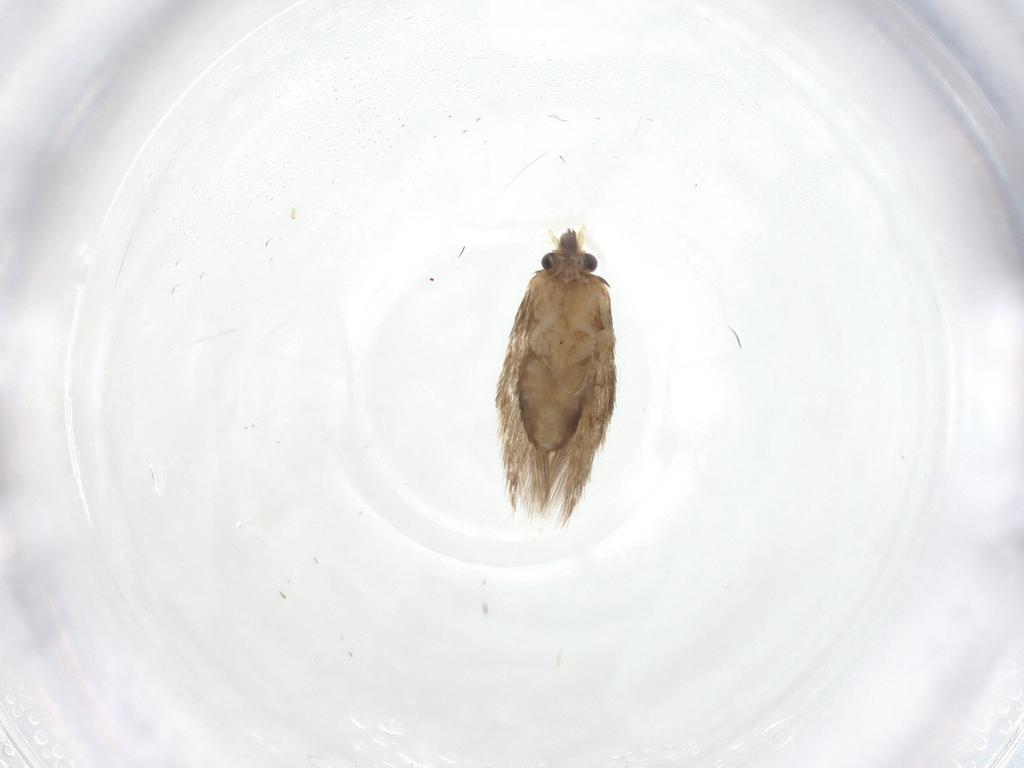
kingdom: Animalia
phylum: Arthropoda
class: Insecta
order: Lepidoptera
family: Nepticulidae
